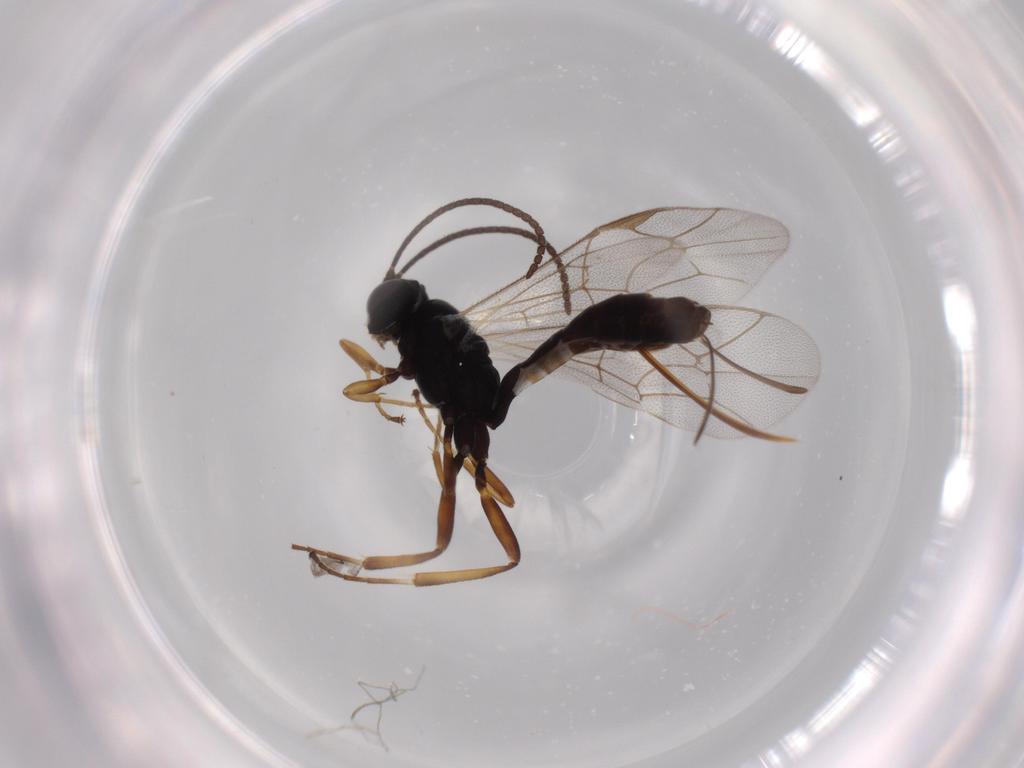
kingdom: Animalia
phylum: Arthropoda
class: Insecta
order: Hymenoptera
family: Ichneumonidae
